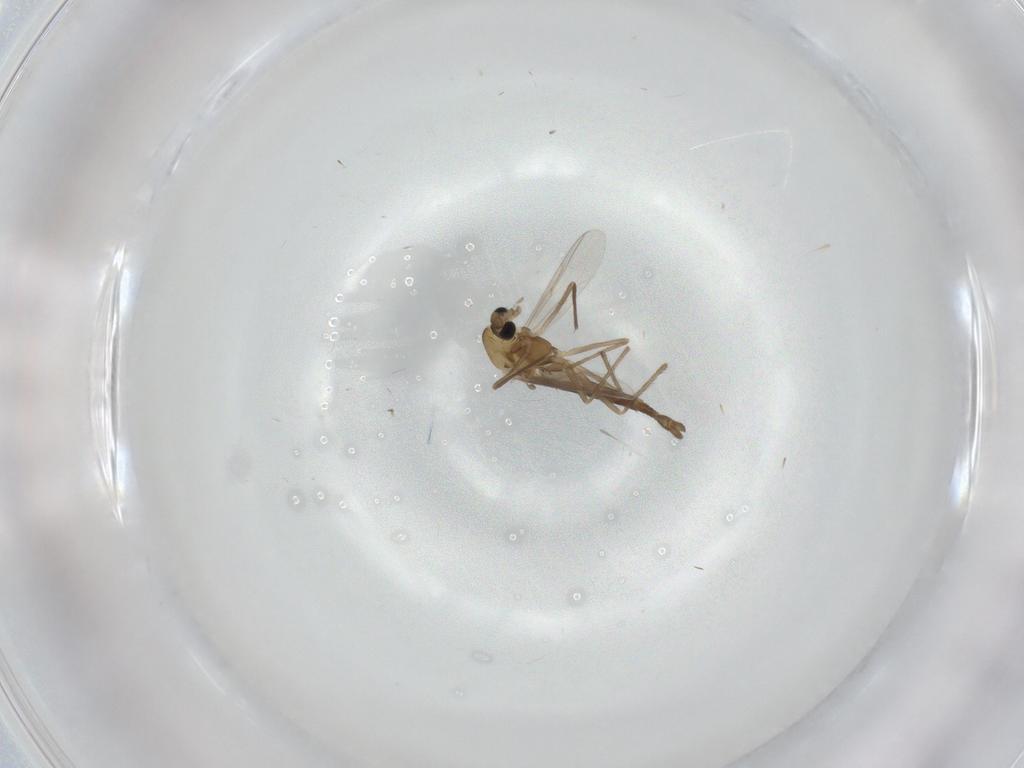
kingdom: Animalia
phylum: Arthropoda
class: Insecta
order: Diptera
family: Chironomidae
